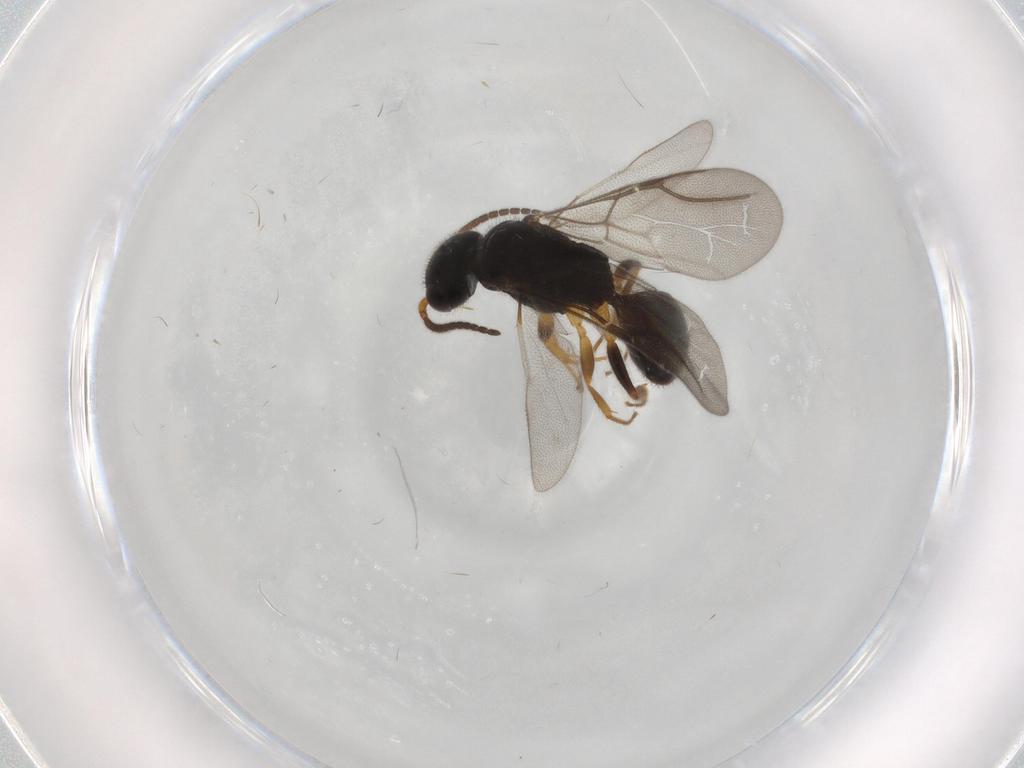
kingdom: Animalia
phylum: Arthropoda
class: Insecta
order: Hymenoptera
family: Bethylidae
